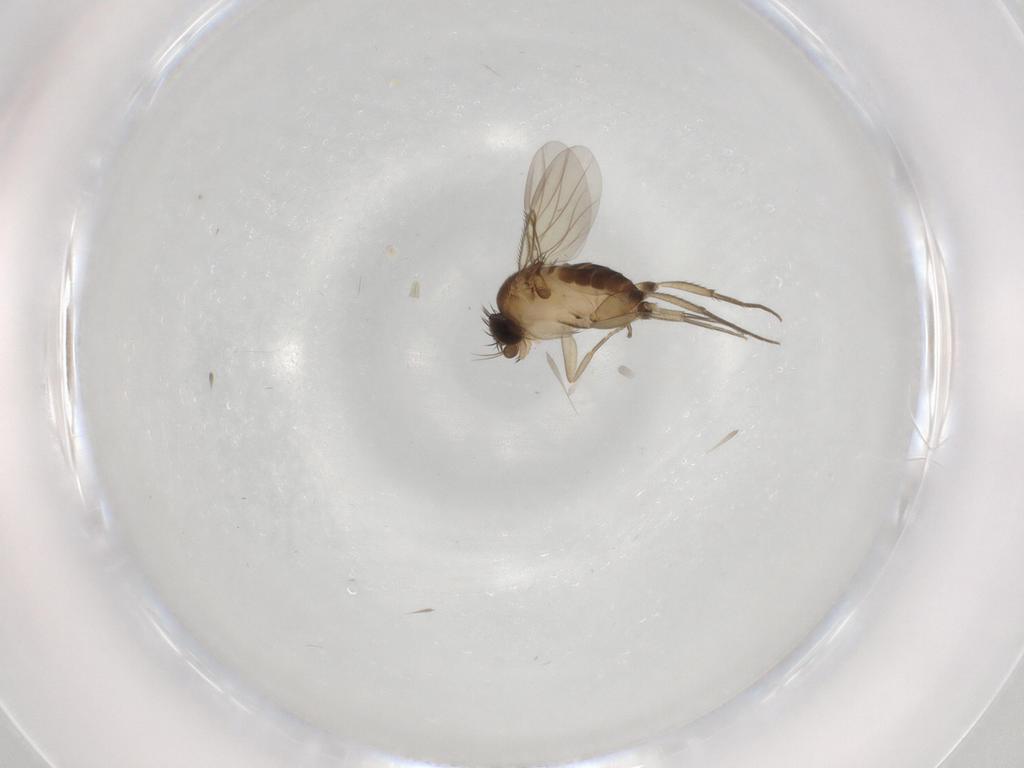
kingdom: Animalia
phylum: Arthropoda
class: Insecta
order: Diptera
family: Phoridae
